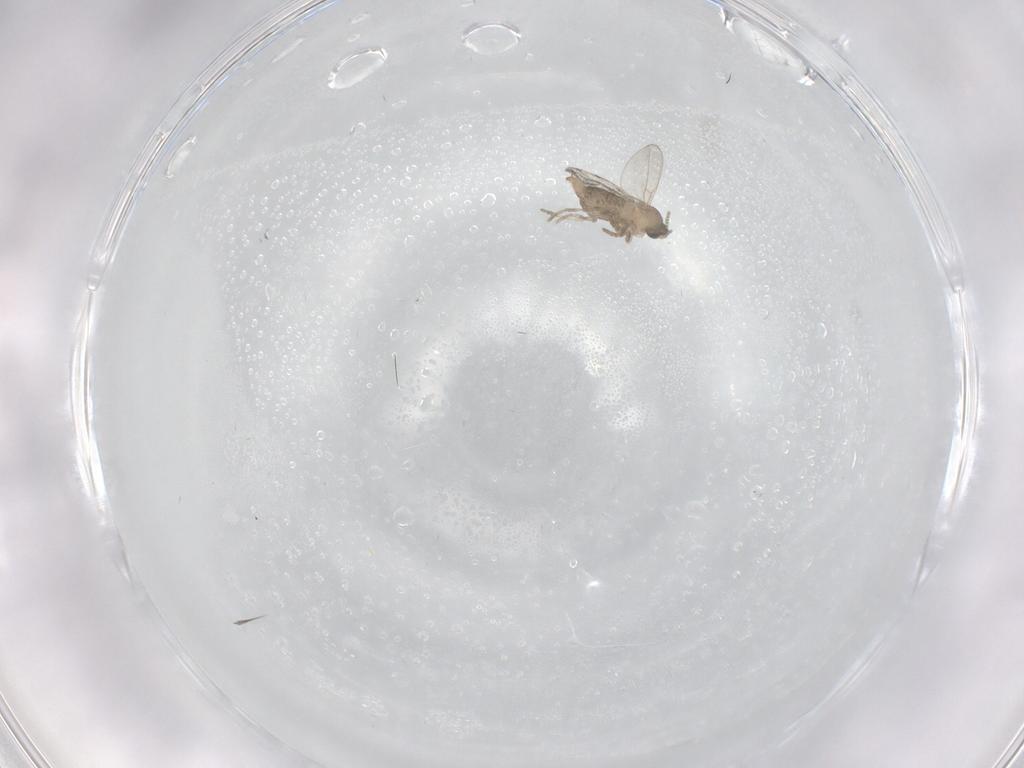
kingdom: Animalia
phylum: Arthropoda
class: Insecta
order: Diptera
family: Cecidomyiidae
